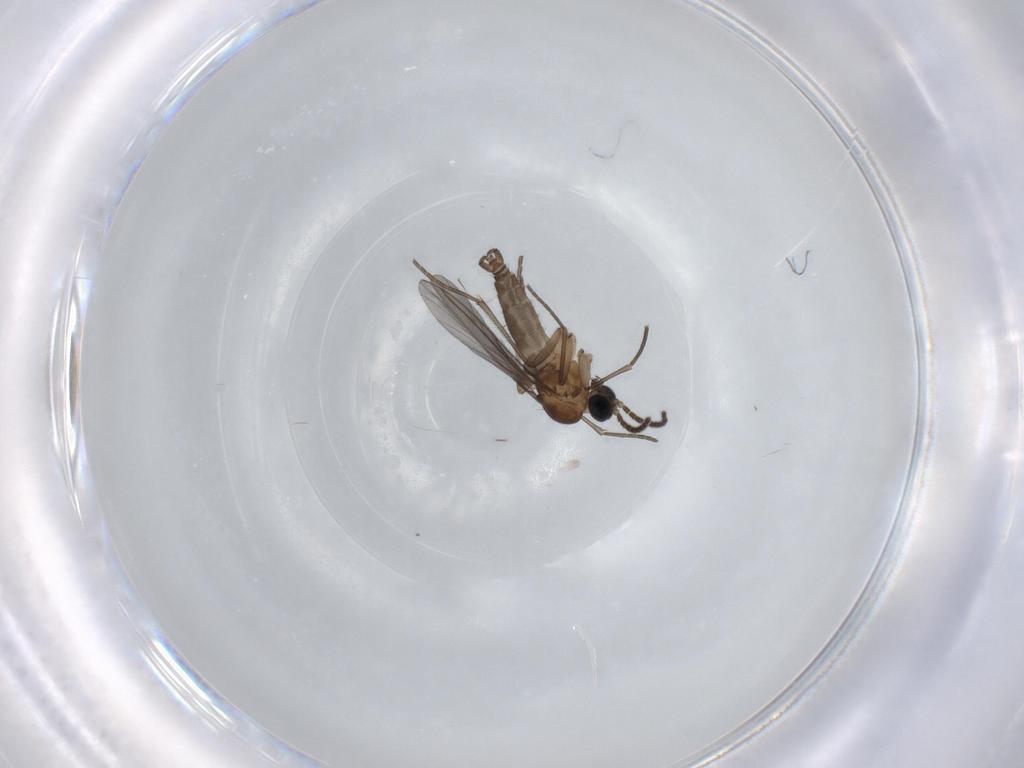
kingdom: Animalia
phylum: Arthropoda
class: Insecta
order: Diptera
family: Sciaridae
